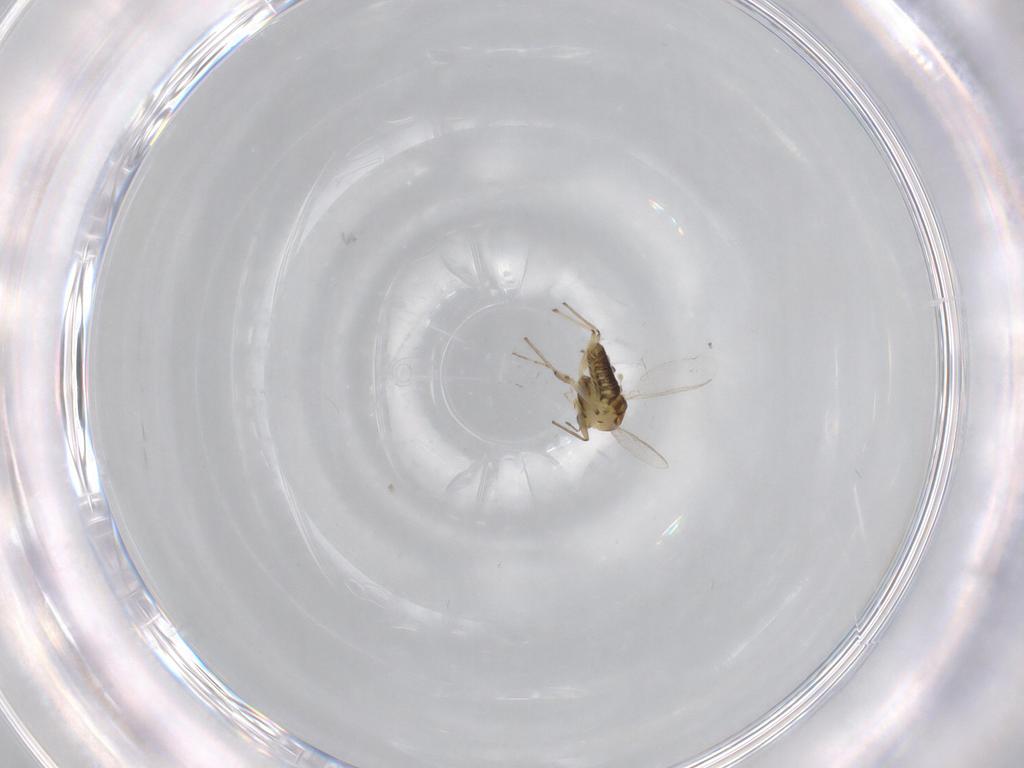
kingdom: Animalia
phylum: Arthropoda
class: Insecta
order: Diptera
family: Chironomidae
